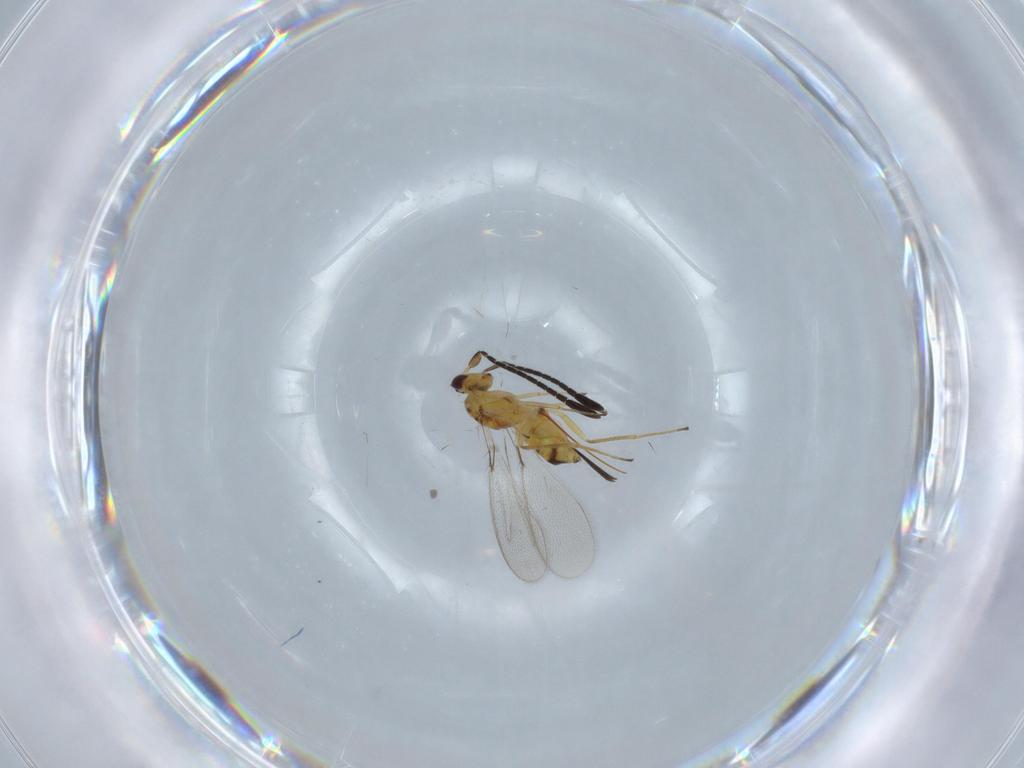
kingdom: Animalia
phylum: Arthropoda
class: Insecta
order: Hymenoptera
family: Mymaridae
